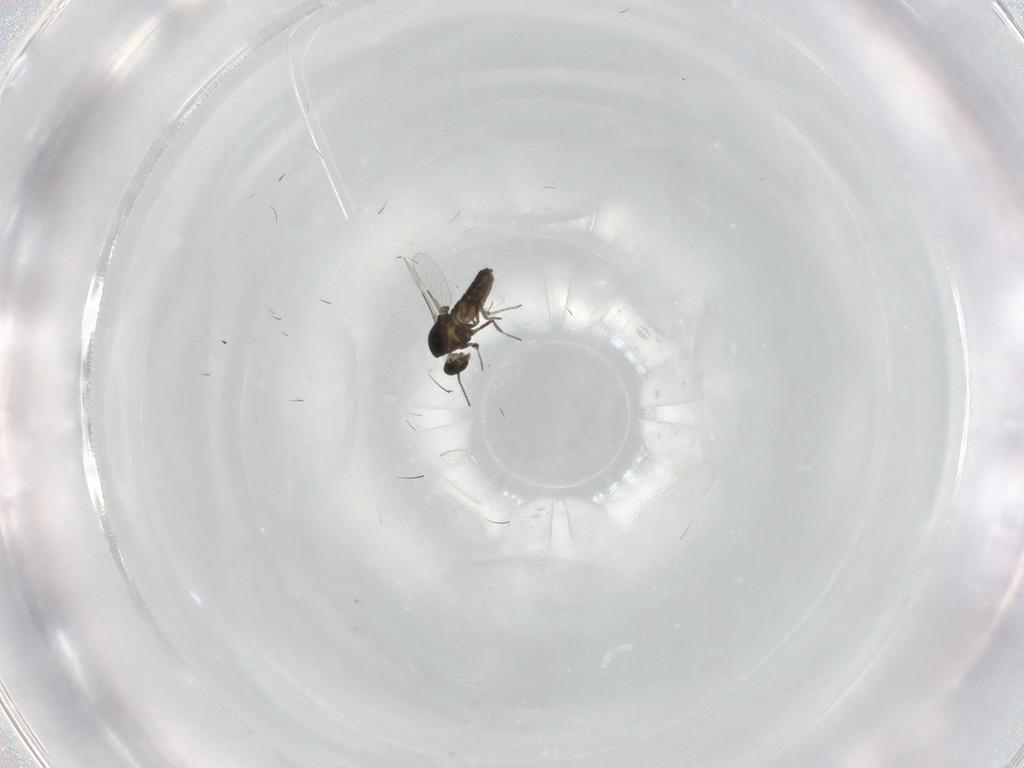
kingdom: Animalia
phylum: Arthropoda
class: Insecta
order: Diptera
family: Ceratopogonidae
